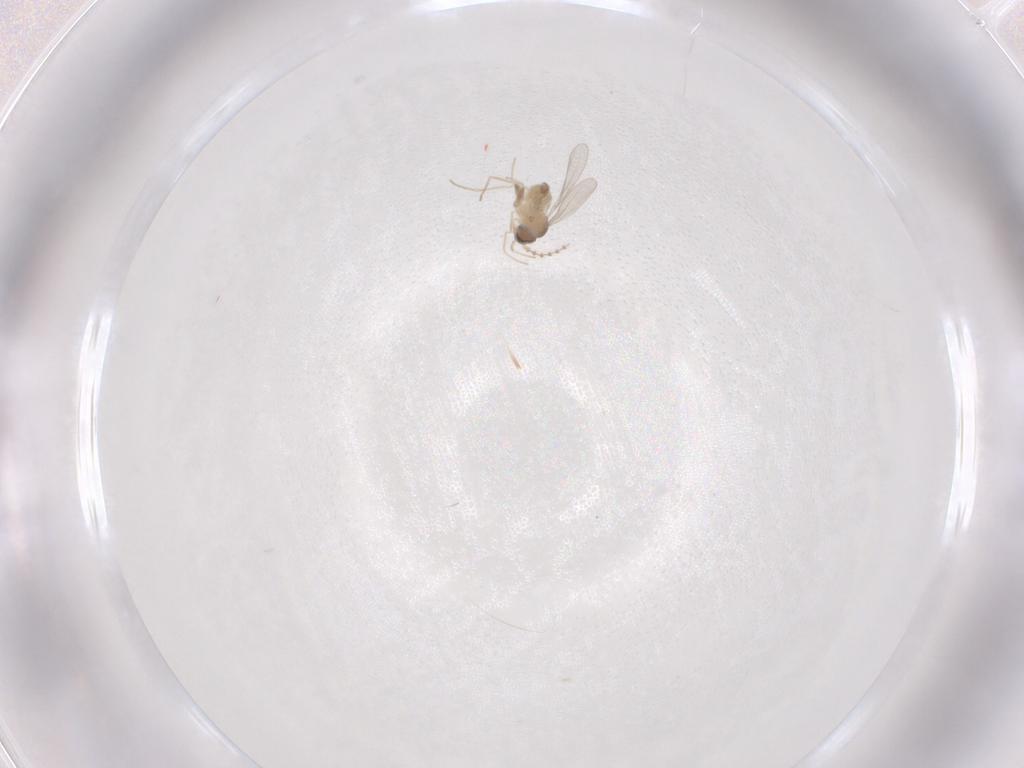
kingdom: Animalia
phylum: Arthropoda
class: Insecta
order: Diptera
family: Cecidomyiidae
